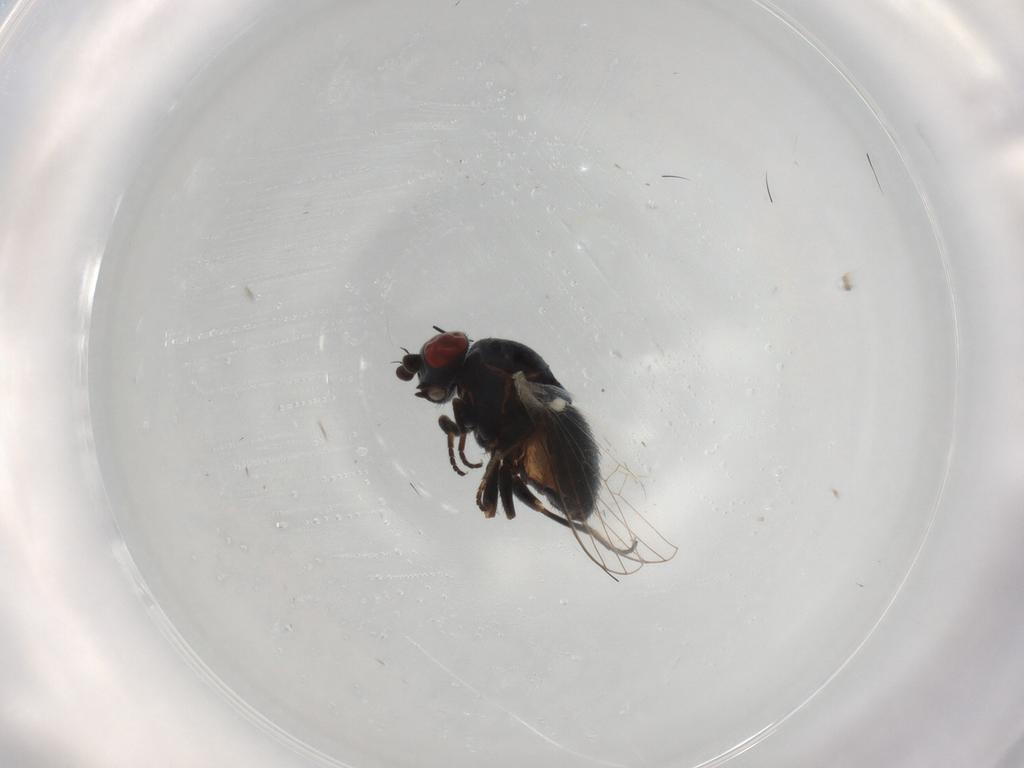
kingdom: Animalia
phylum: Arthropoda
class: Insecta
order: Diptera
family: Chamaemyiidae
